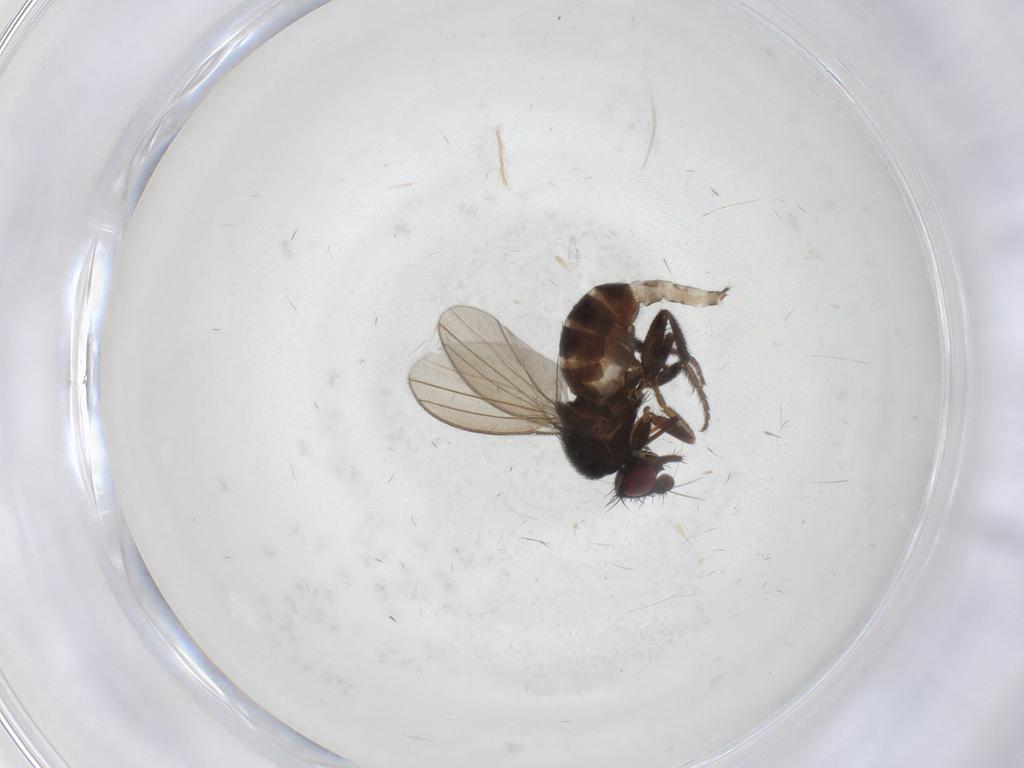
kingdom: Animalia
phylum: Arthropoda
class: Insecta
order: Diptera
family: Milichiidae
